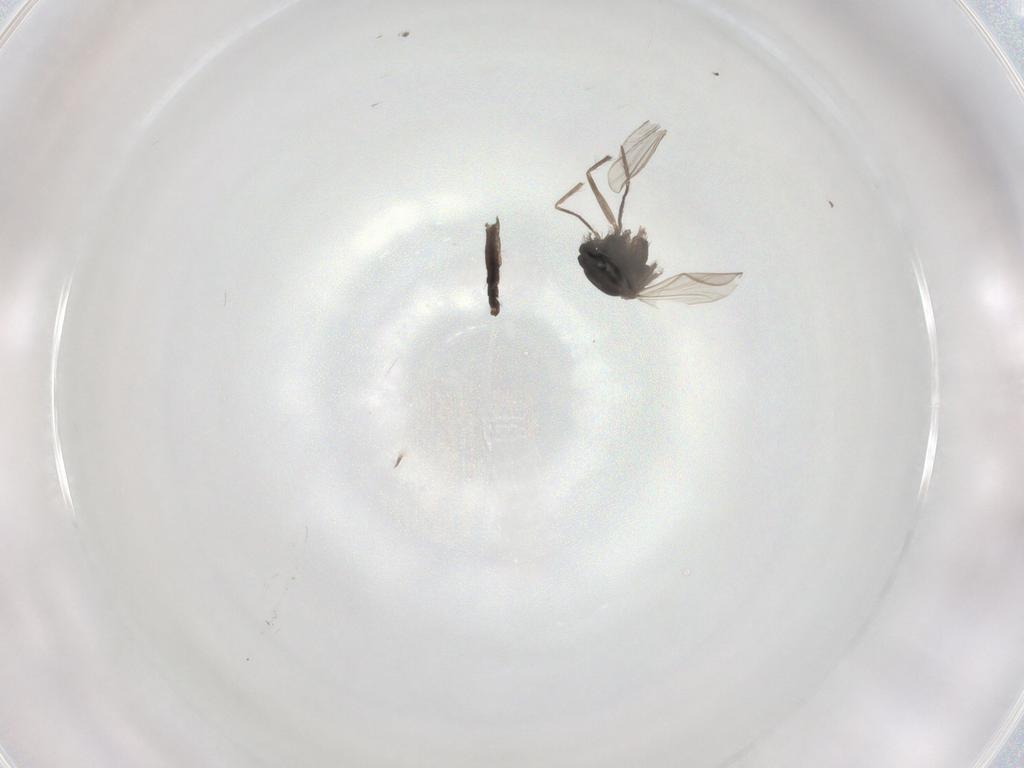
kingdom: Animalia
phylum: Arthropoda
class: Insecta
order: Diptera
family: Chironomidae
